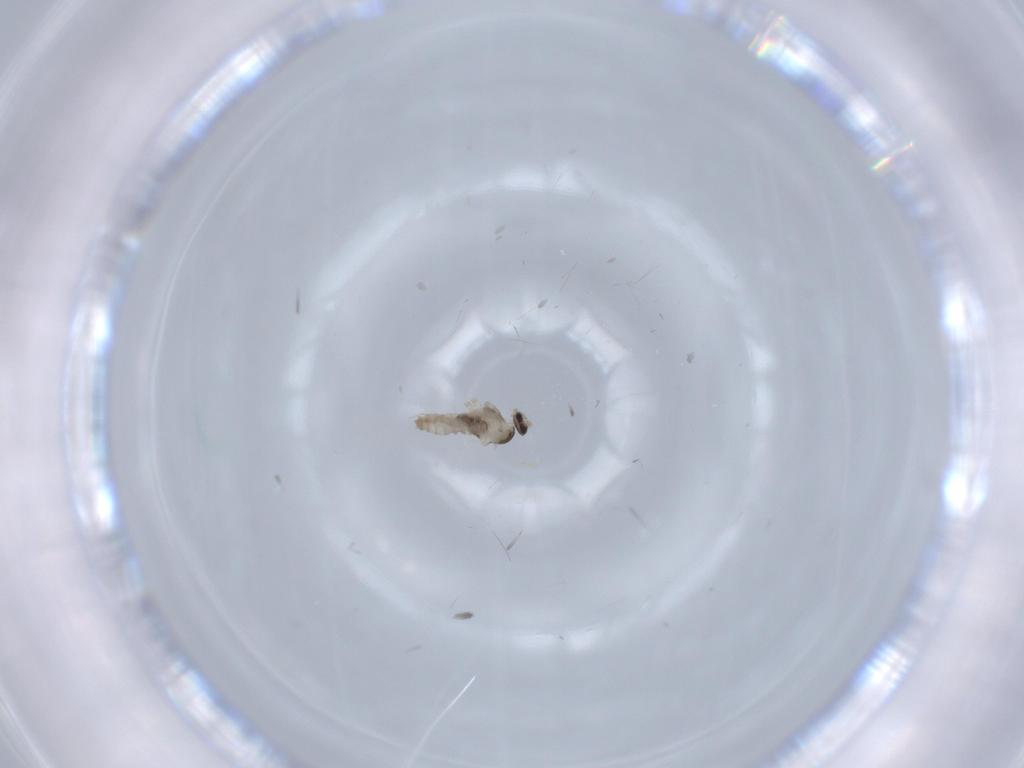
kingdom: Animalia
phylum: Arthropoda
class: Insecta
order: Diptera
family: Cecidomyiidae
